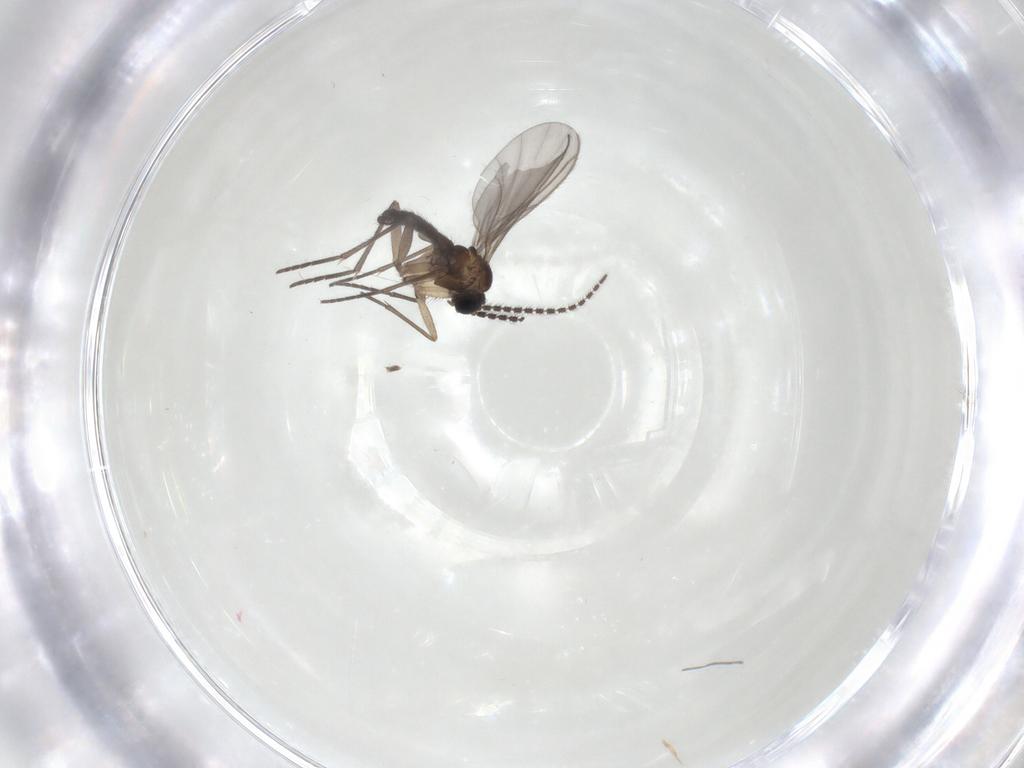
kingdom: Animalia
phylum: Arthropoda
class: Insecta
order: Diptera
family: Sciaridae
